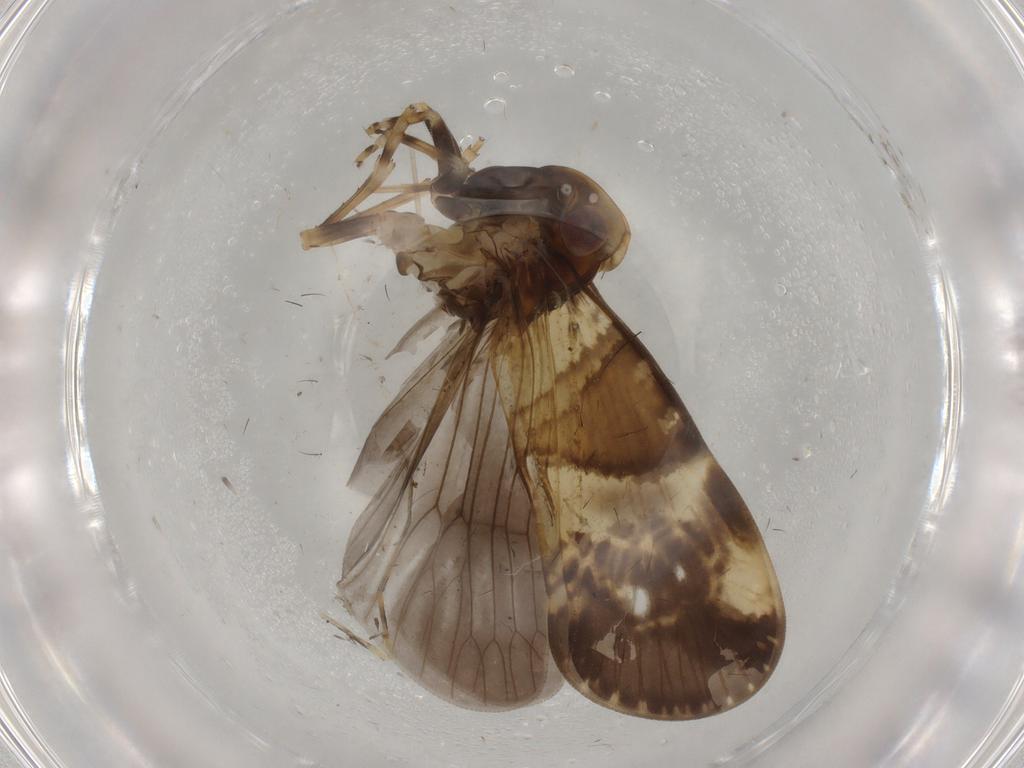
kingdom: Animalia
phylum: Arthropoda
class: Insecta
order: Hemiptera
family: Cixiidae
